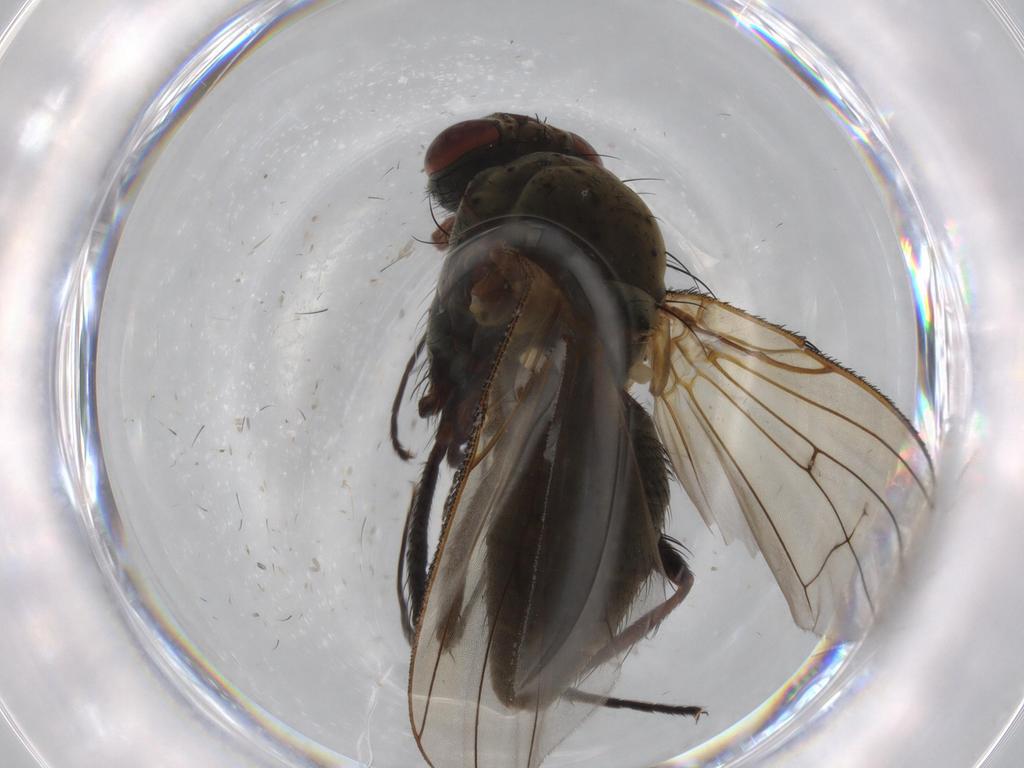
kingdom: Animalia
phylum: Arthropoda
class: Insecta
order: Diptera
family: Anthomyiidae
